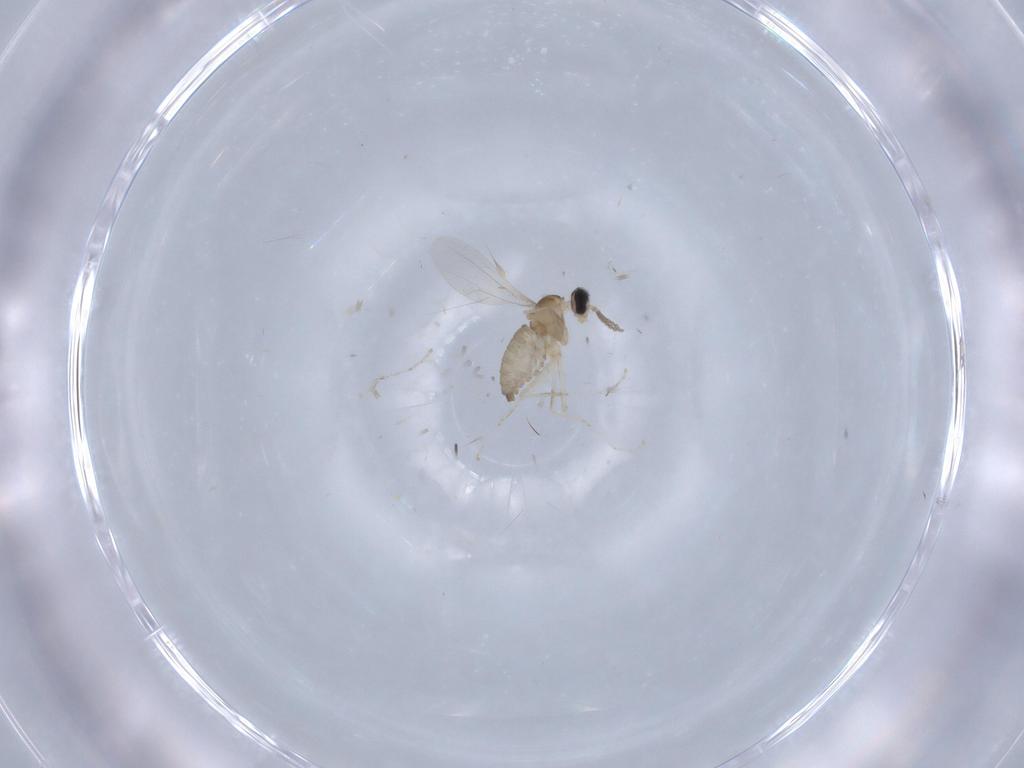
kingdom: Animalia
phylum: Arthropoda
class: Insecta
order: Diptera
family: Cecidomyiidae
